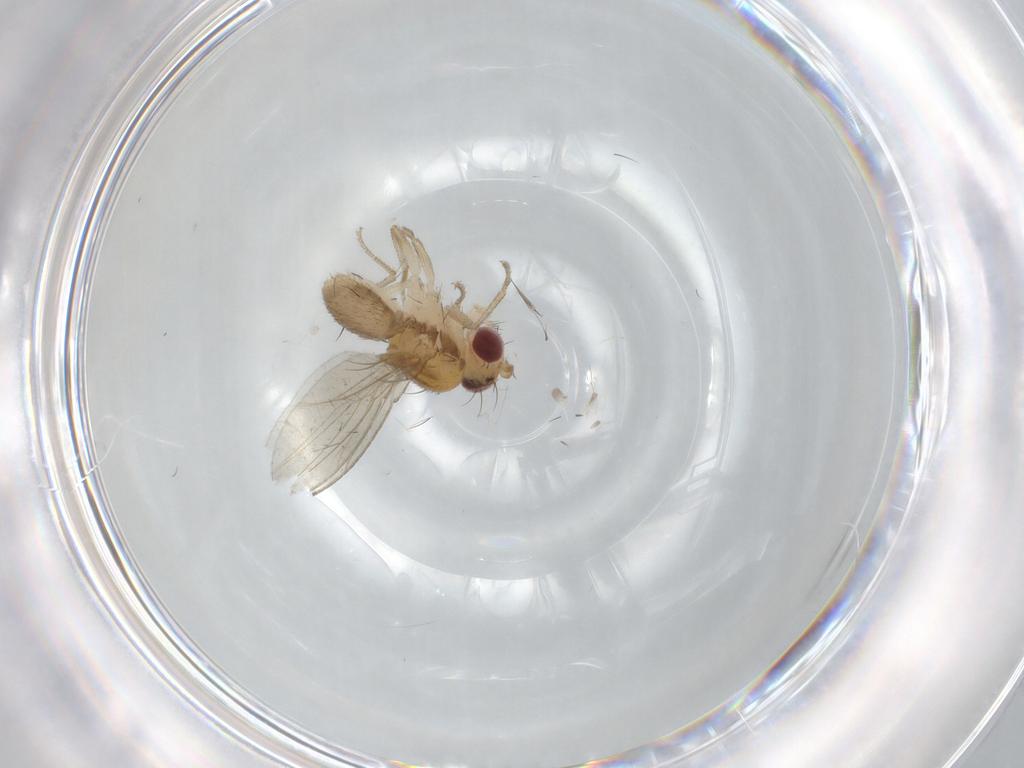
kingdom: Animalia
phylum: Arthropoda
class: Insecta
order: Diptera
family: Drosophilidae
